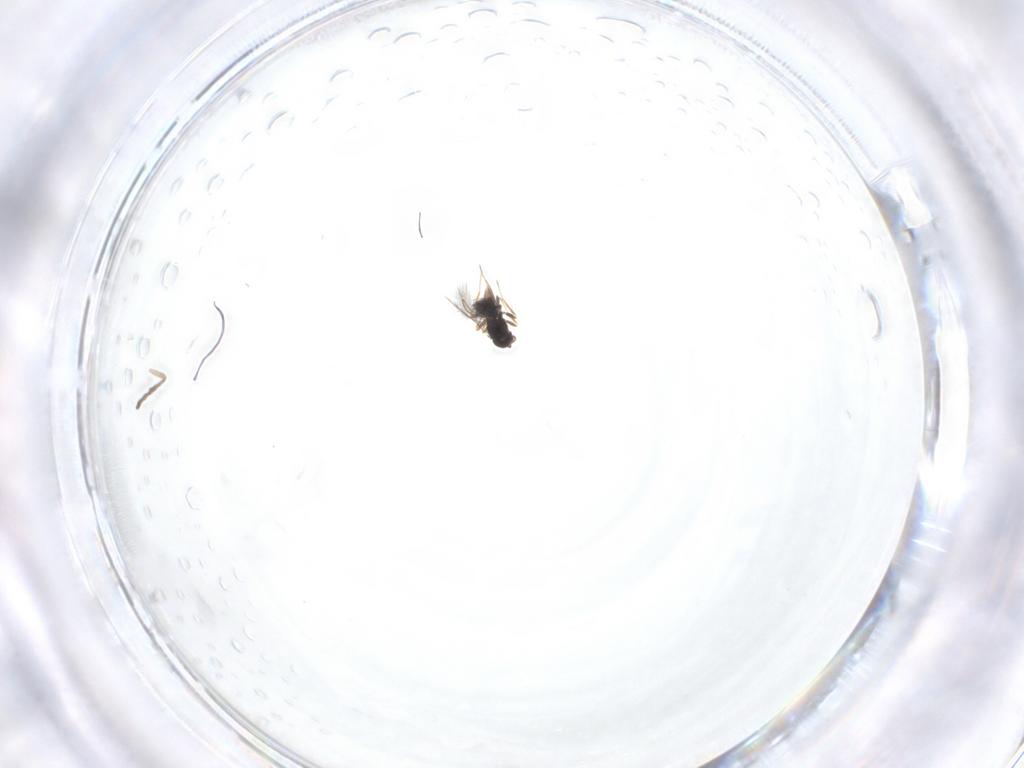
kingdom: Animalia
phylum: Arthropoda
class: Insecta
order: Diptera
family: Psychodidae
